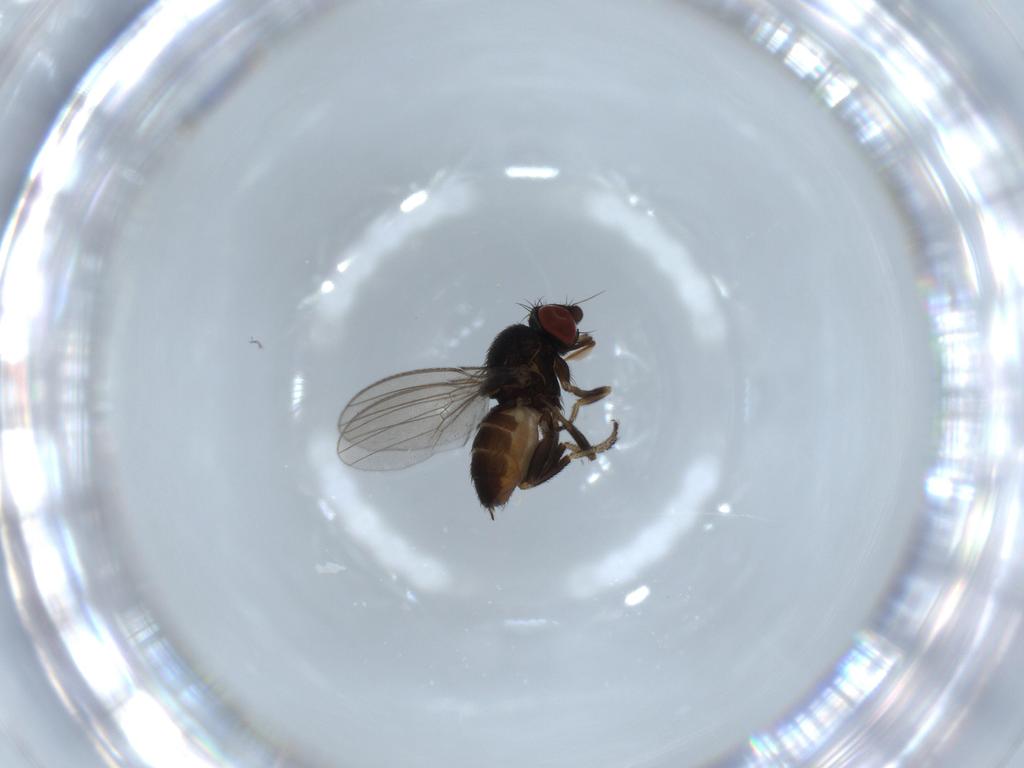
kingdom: Animalia
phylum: Arthropoda
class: Insecta
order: Diptera
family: Milichiidae
